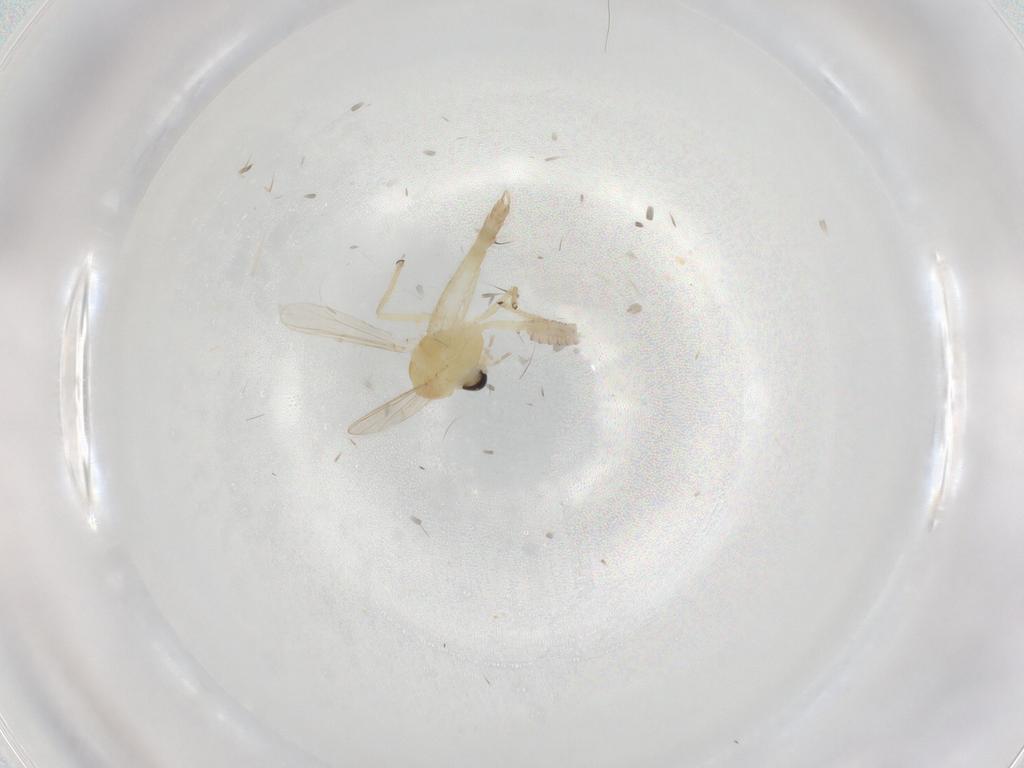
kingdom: Animalia
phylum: Arthropoda
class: Insecta
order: Diptera
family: Chironomidae
